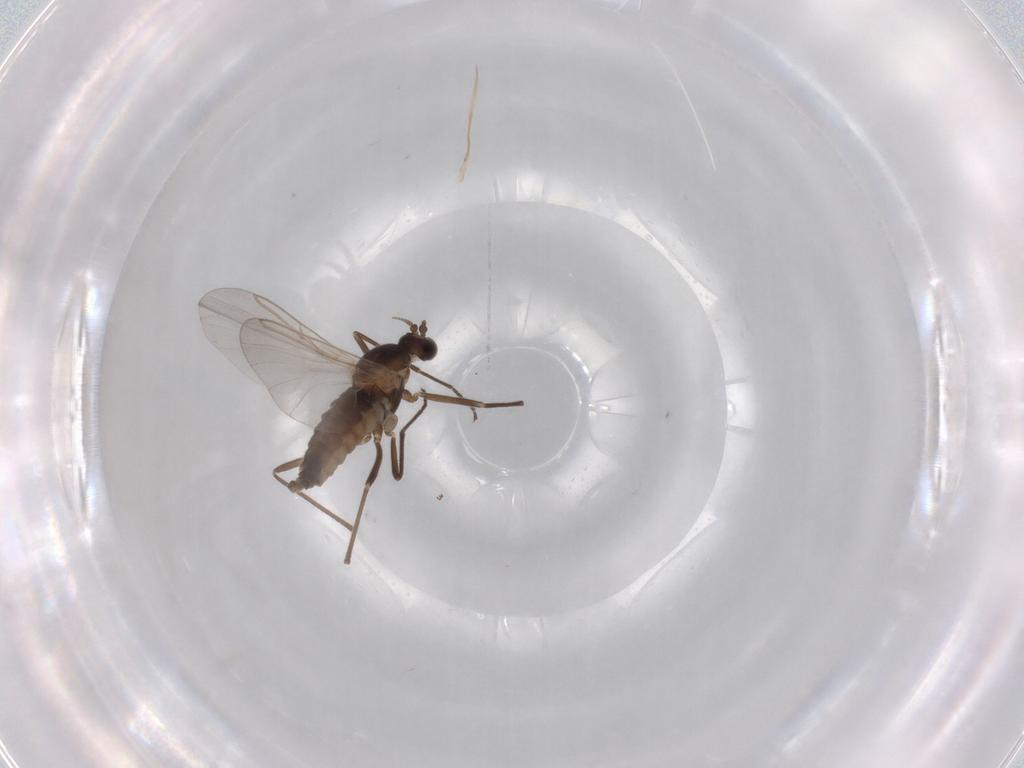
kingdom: Animalia
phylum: Arthropoda
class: Insecta
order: Diptera
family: Cecidomyiidae
